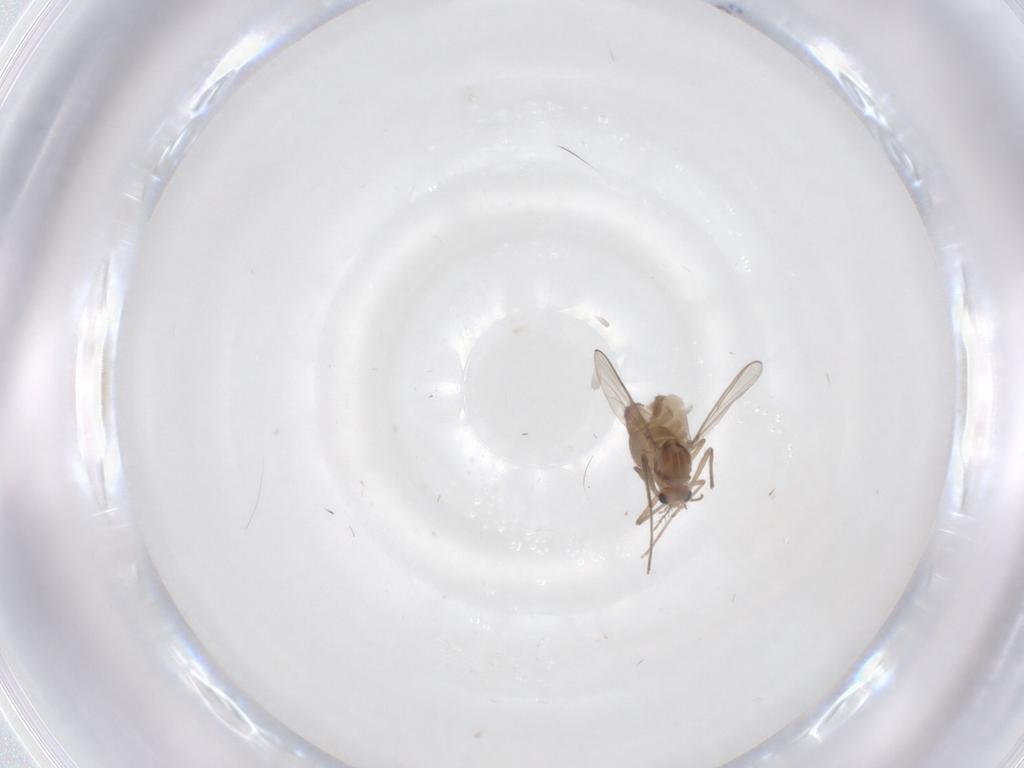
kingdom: Animalia
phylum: Arthropoda
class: Insecta
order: Diptera
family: Chironomidae
